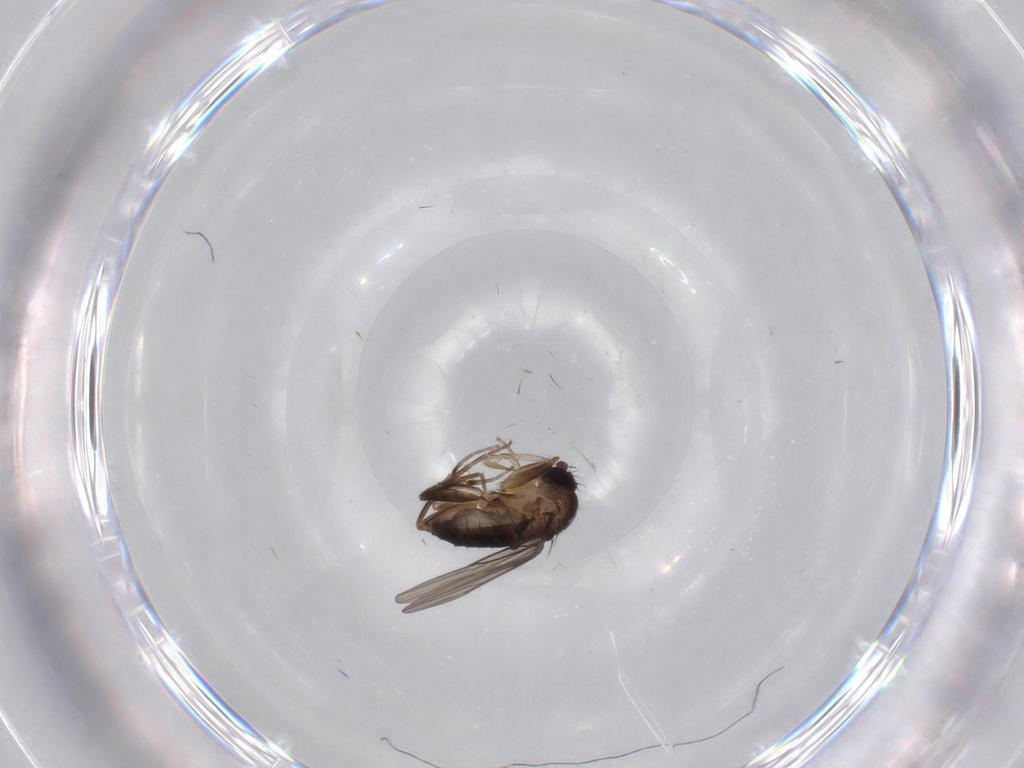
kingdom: Animalia
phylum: Arthropoda
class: Insecta
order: Diptera
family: Phoridae
